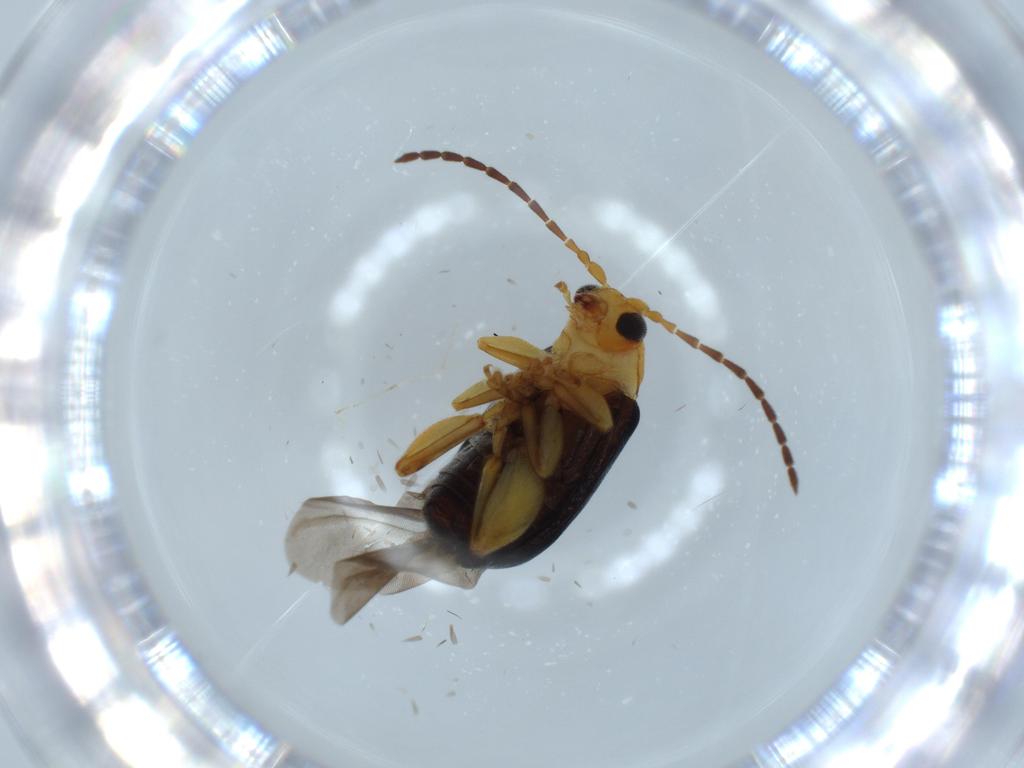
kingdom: Animalia
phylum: Arthropoda
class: Insecta
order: Coleoptera
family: Chrysomelidae
